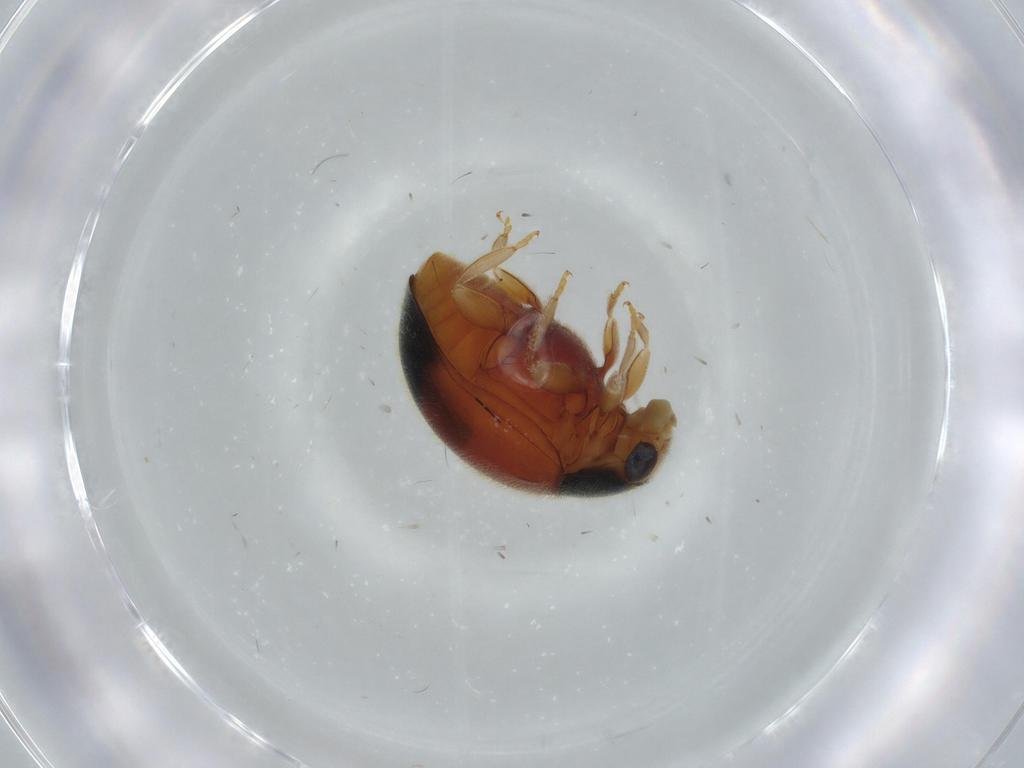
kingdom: Animalia
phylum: Arthropoda
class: Insecta
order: Coleoptera
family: Coccinellidae
